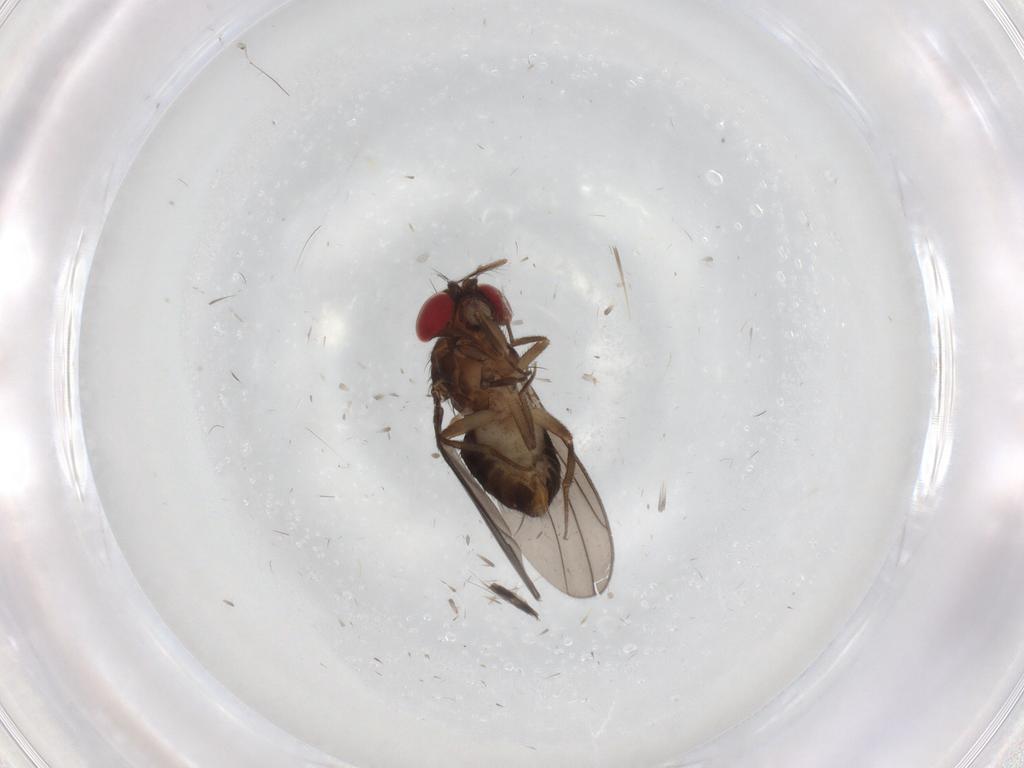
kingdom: Animalia
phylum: Arthropoda
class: Insecta
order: Diptera
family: Drosophilidae
